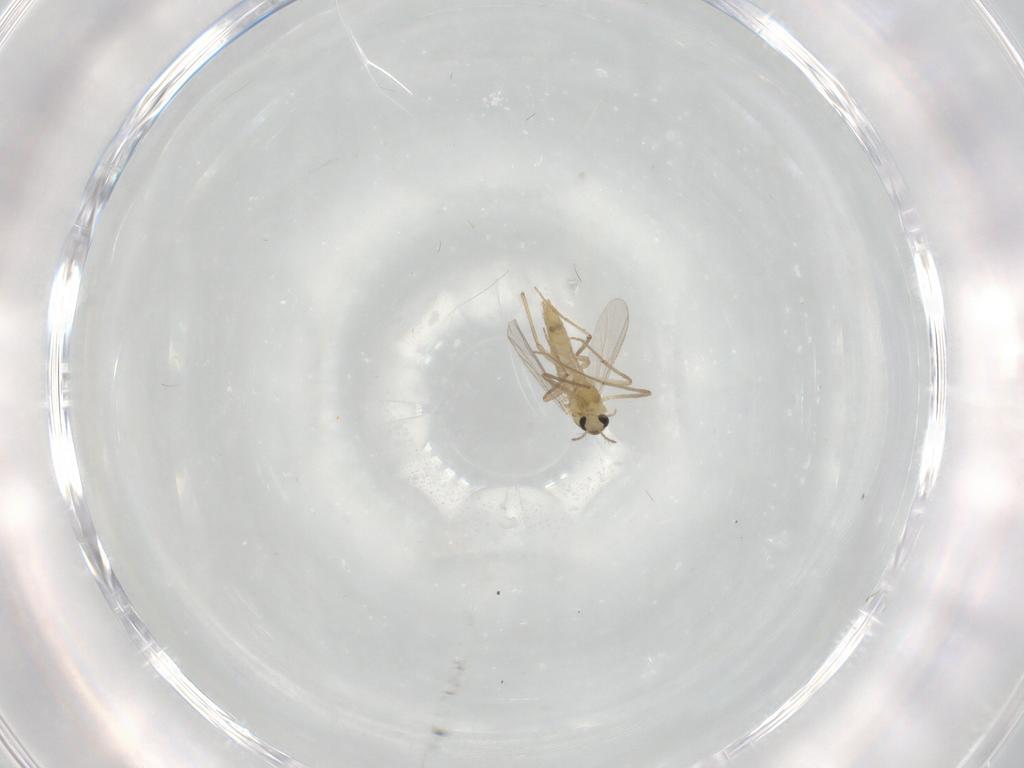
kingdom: Animalia
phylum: Arthropoda
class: Insecta
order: Diptera
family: Chironomidae
